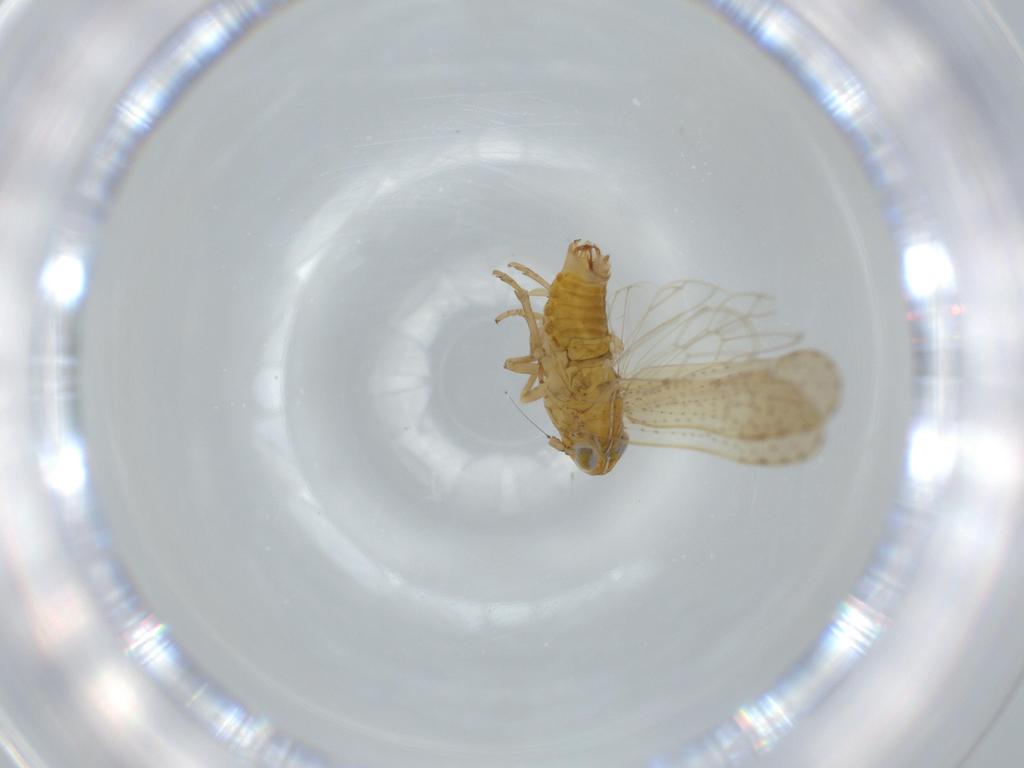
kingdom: Animalia
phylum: Arthropoda
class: Insecta
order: Hemiptera
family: Delphacidae
